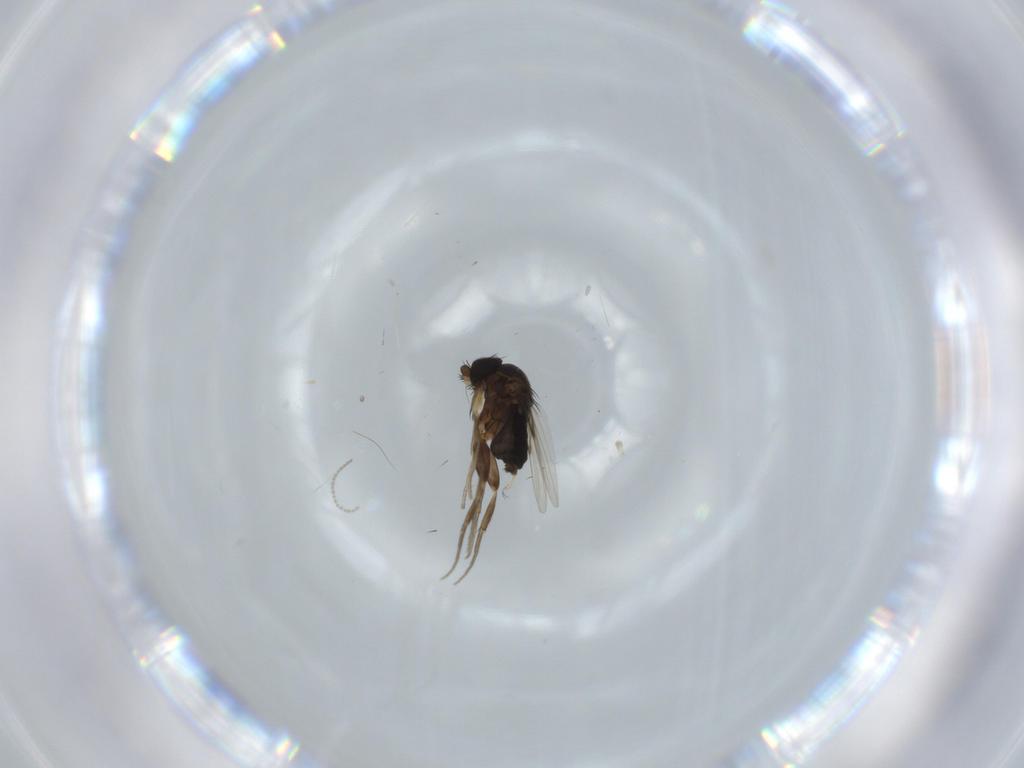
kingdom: Animalia
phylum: Arthropoda
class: Insecta
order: Diptera
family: Phoridae
